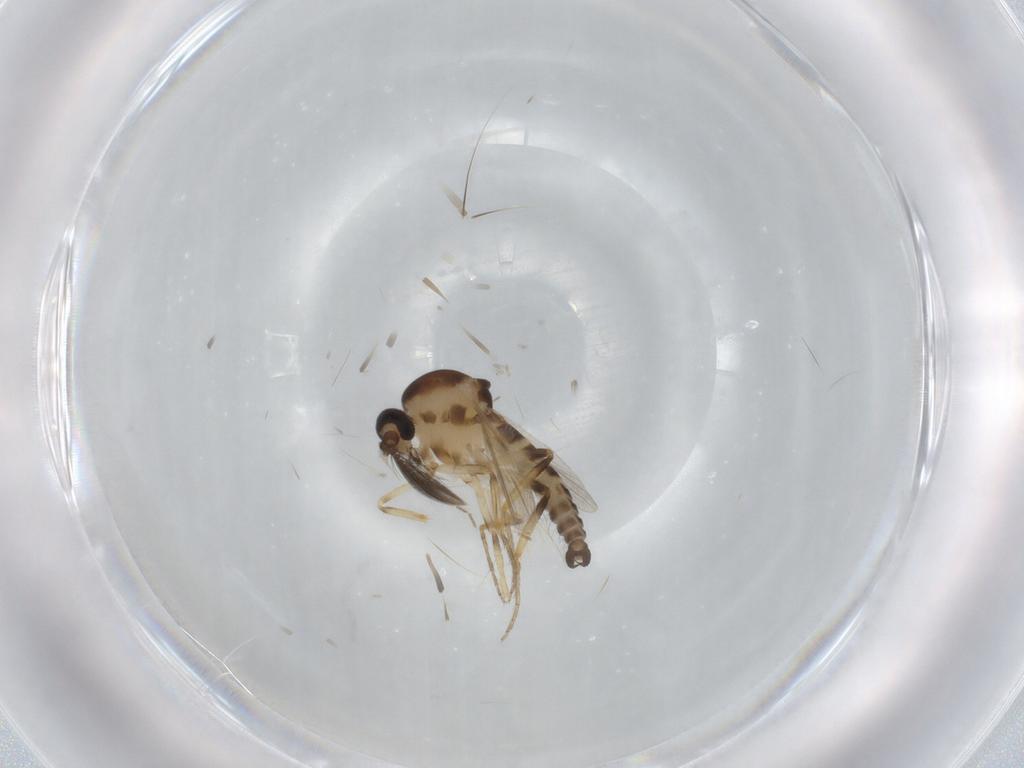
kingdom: Animalia
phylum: Arthropoda
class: Insecta
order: Diptera
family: Ceratopogonidae
